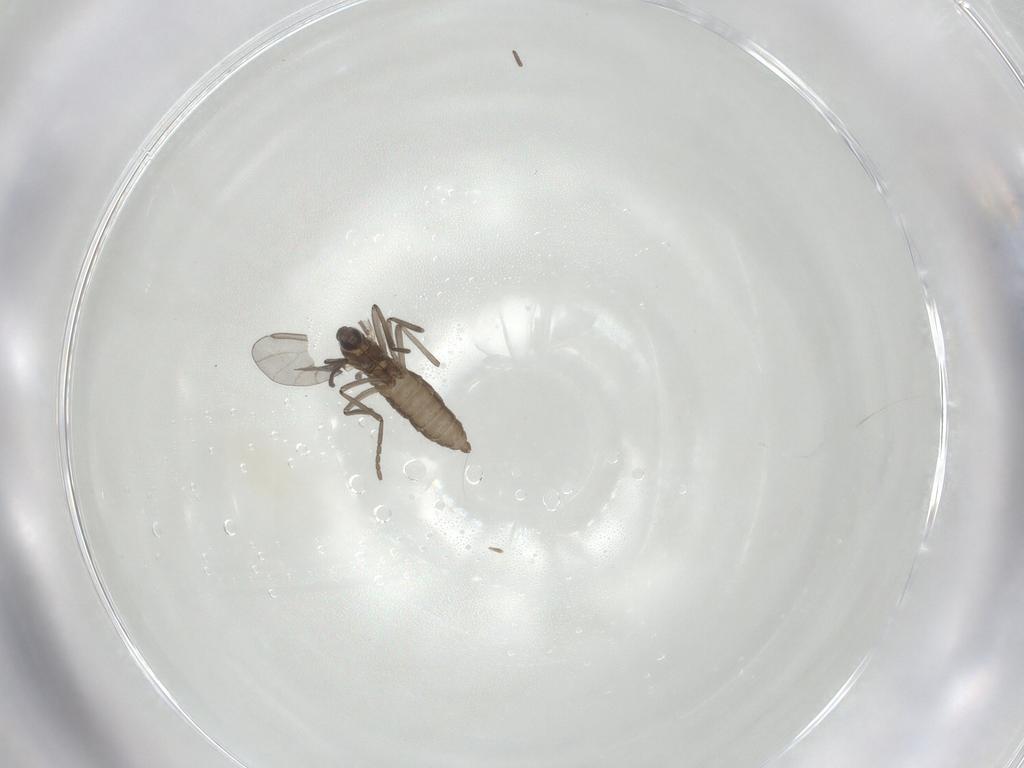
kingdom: Animalia
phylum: Arthropoda
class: Insecta
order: Diptera
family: Cecidomyiidae
